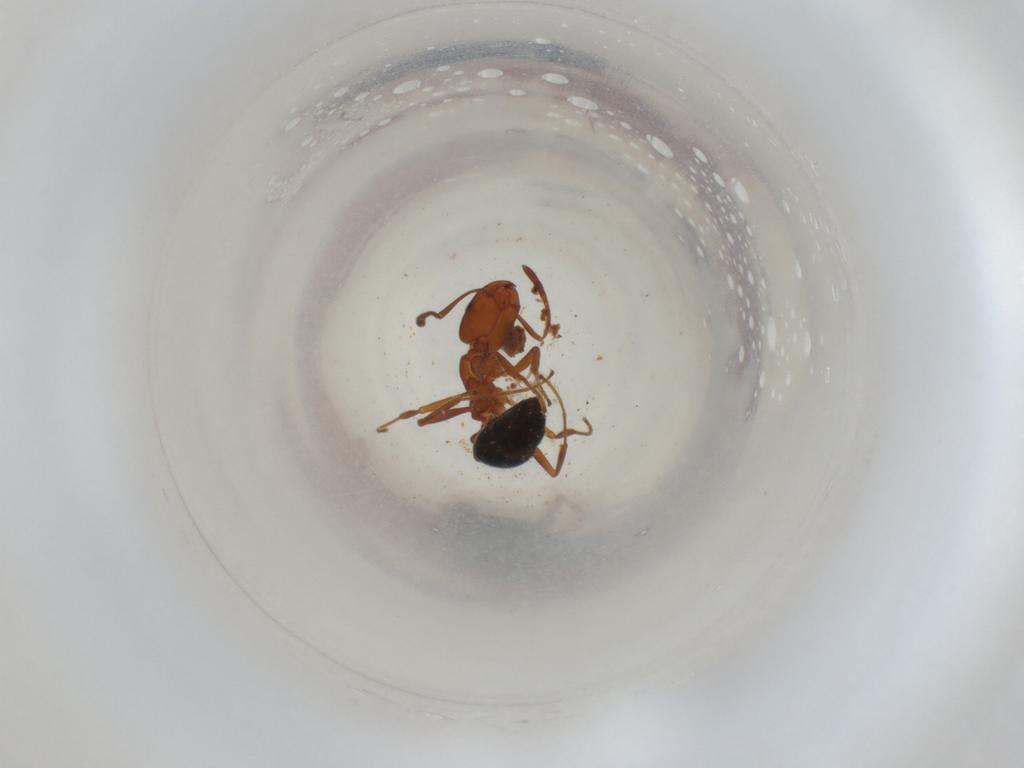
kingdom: Animalia
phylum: Arthropoda
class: Insecta
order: Hymenoptera
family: Formicidae
